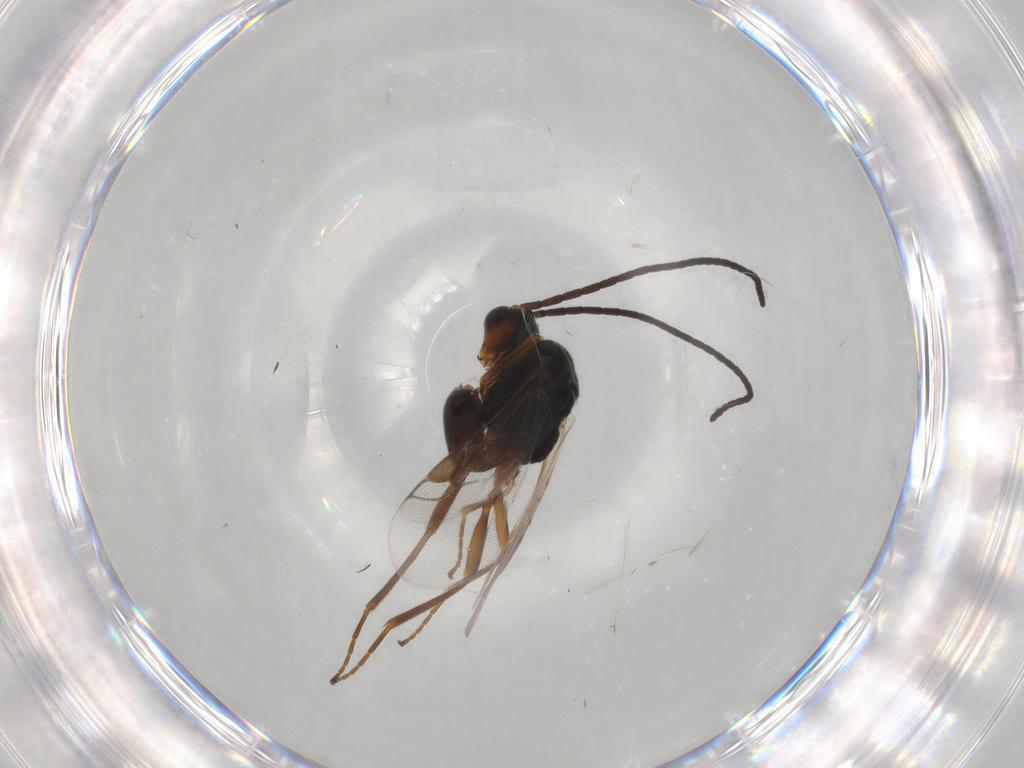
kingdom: Animalia
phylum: Arthropoda
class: Insecta
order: Hymenoptera
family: Braconidae
